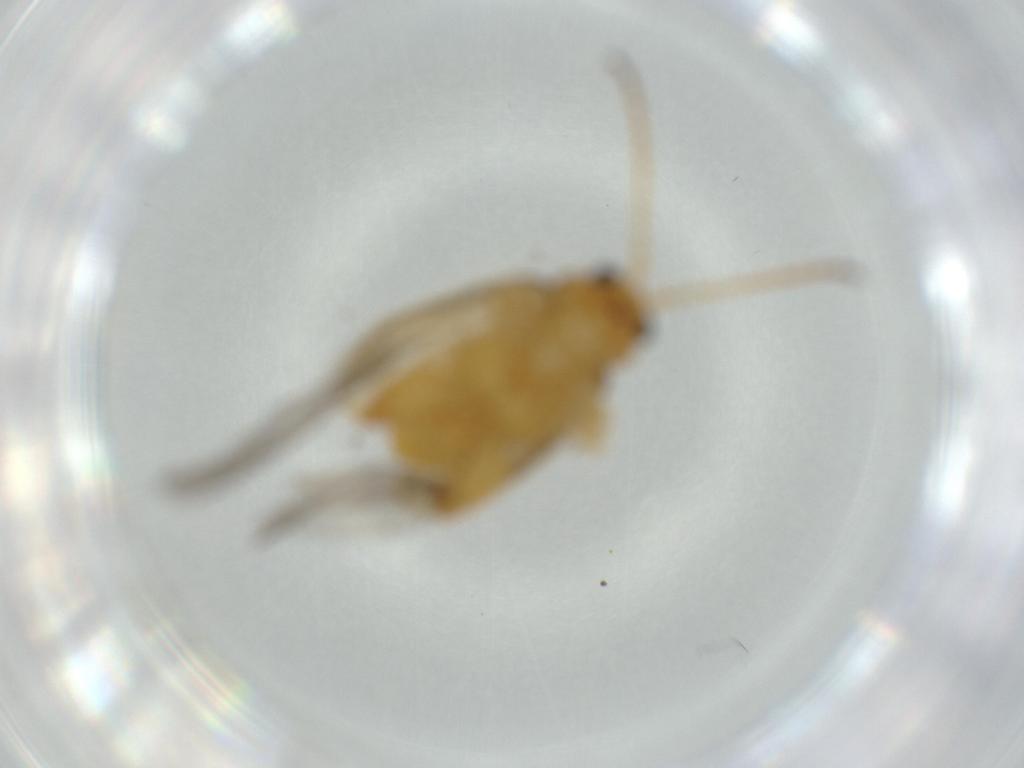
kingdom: Animalia
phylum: Arthropoda
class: Insecta
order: Coleoptera
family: Chrysomelidae
